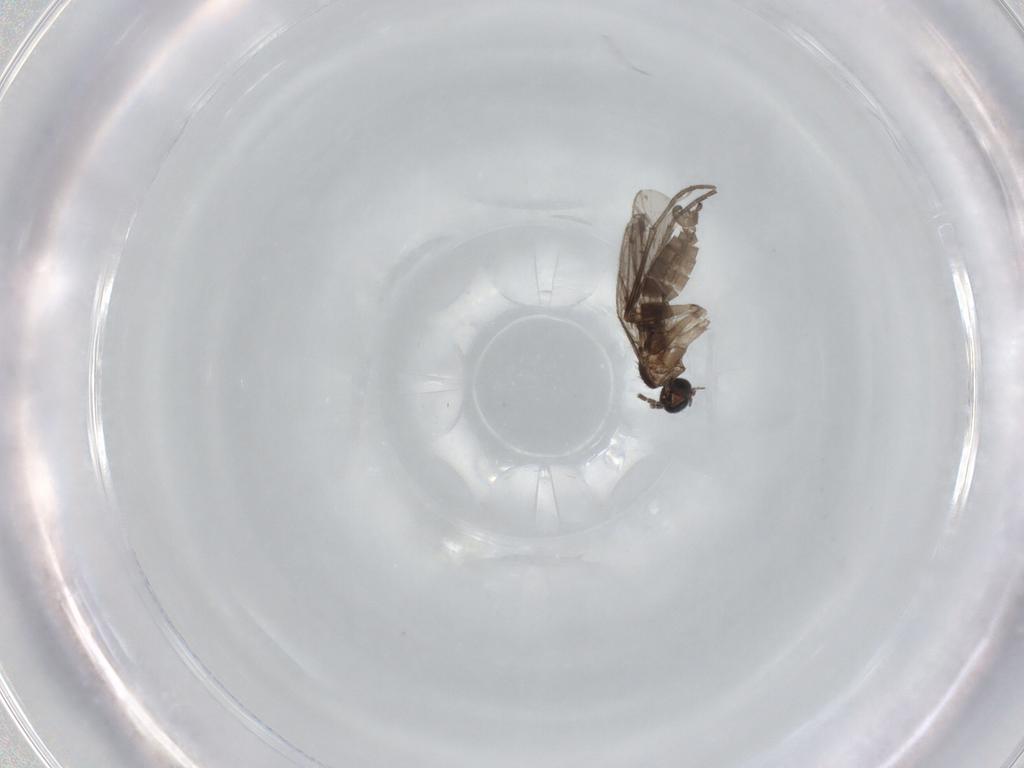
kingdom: Animalia
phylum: Arthropoda
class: Insecta
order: Diptera
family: Sciaridae
